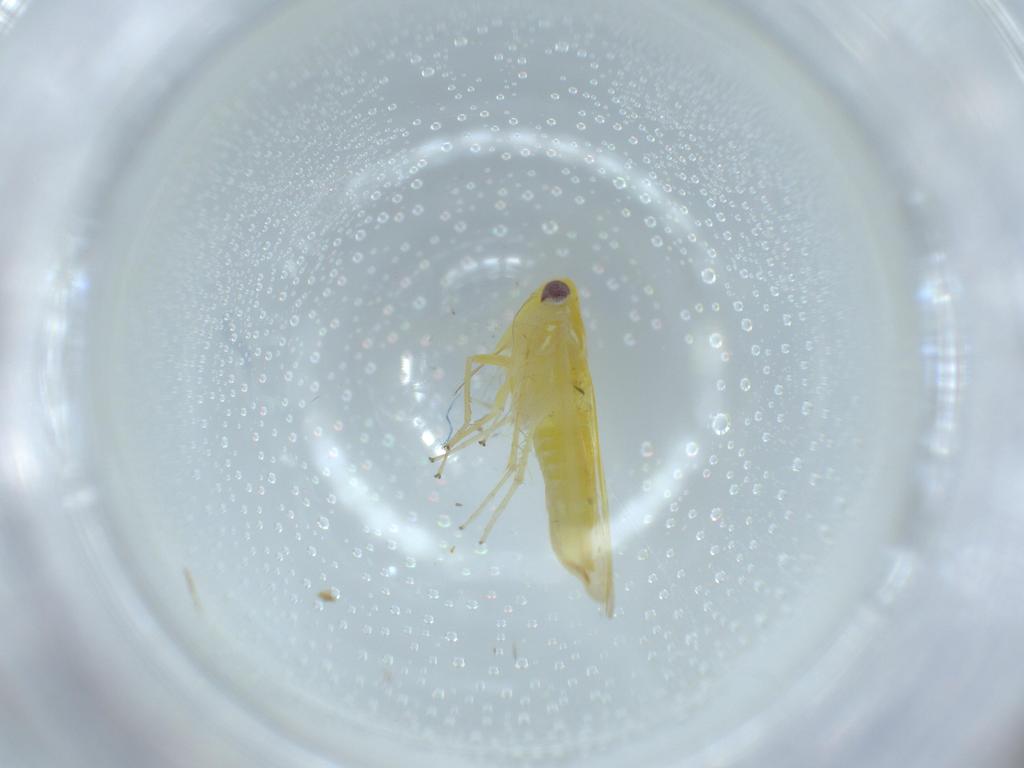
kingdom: Animalia
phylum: Arthropoda
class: Insecta
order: Hemiptera
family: Cicadellidae
